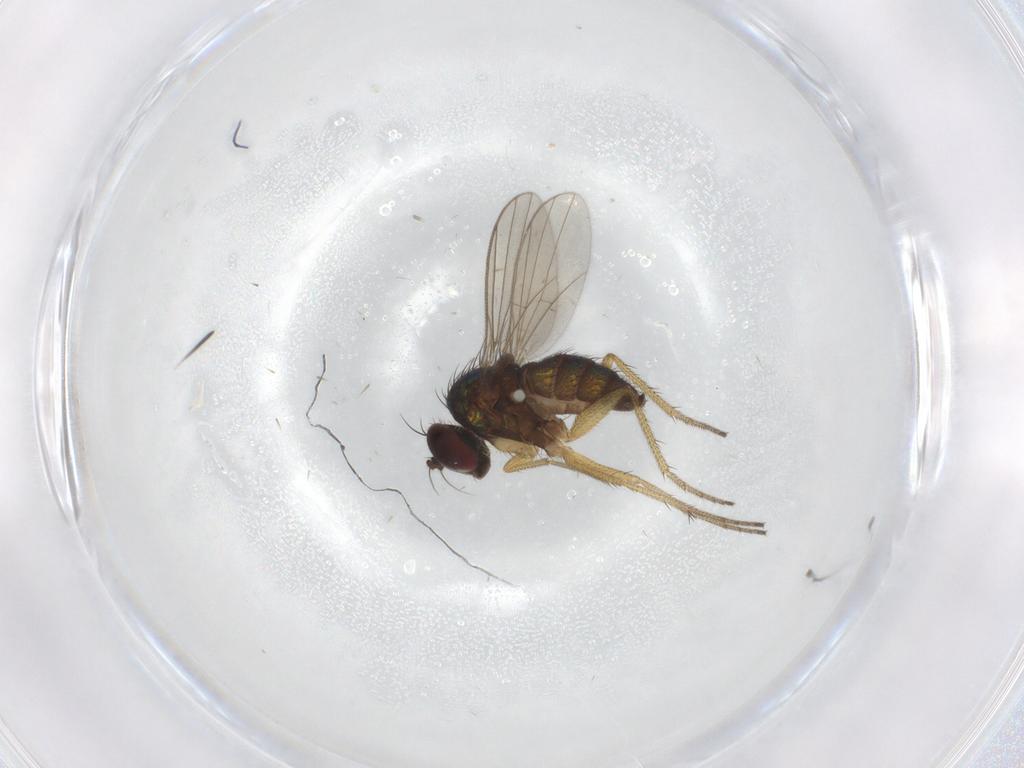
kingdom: Animalia
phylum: Arthropoda
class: Insecta
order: Diptera
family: Dolichopodidae
